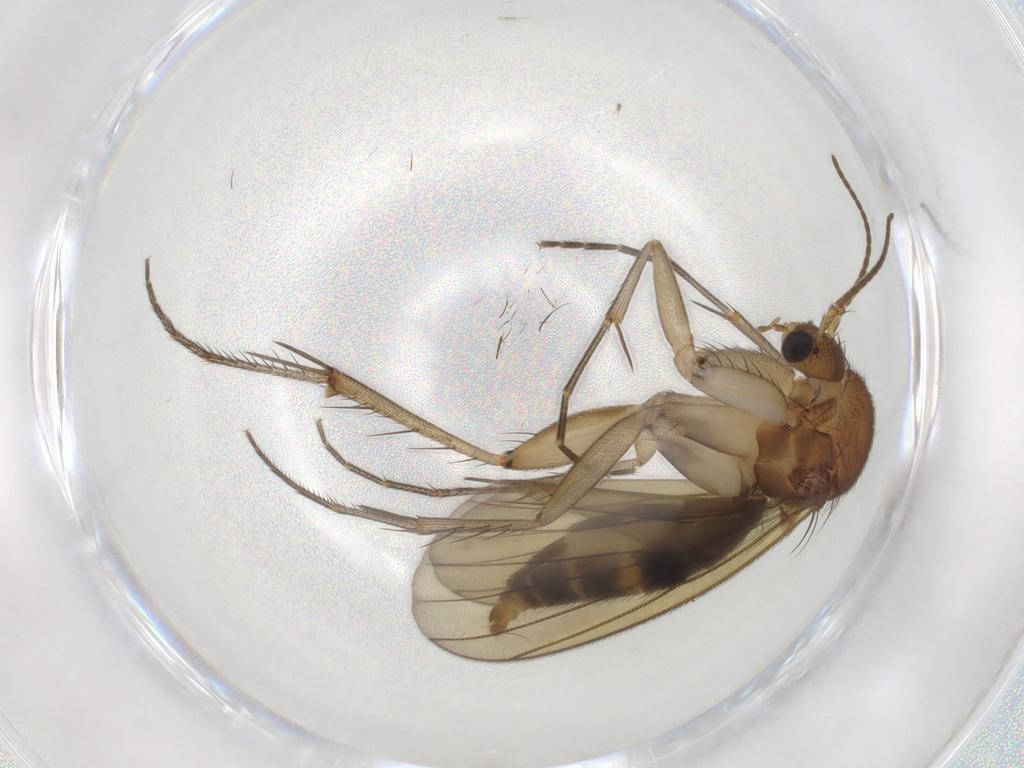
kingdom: Animalia
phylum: Arthropoda
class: Insecta
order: Diptera
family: Mycetophilidae
